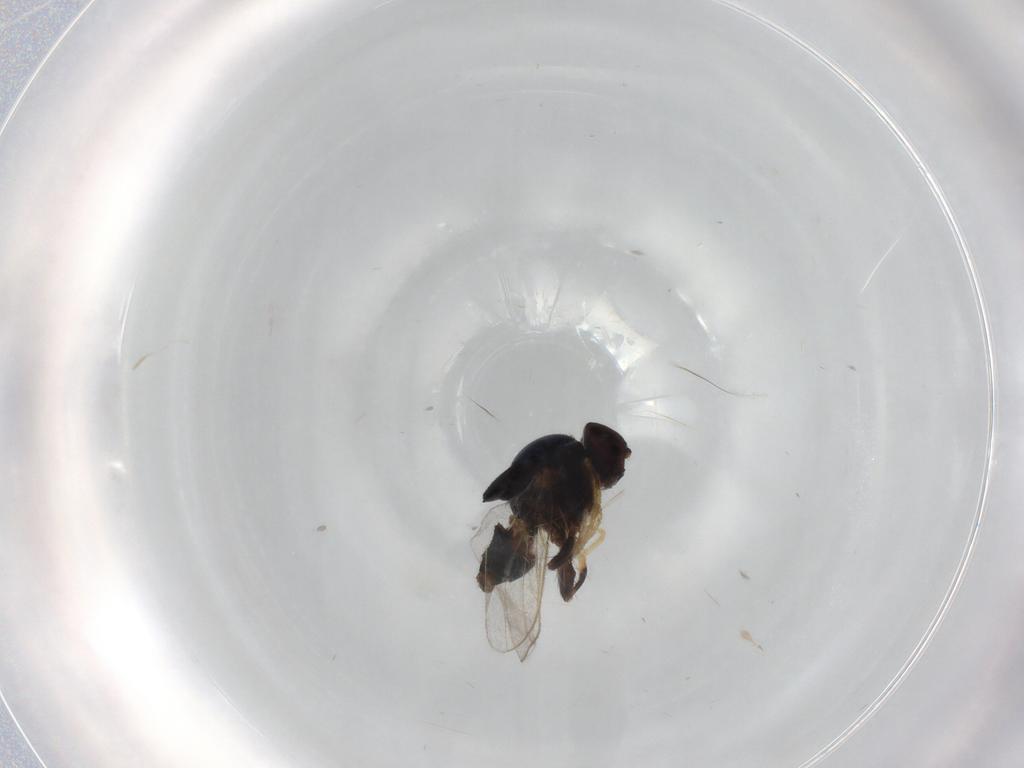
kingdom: Animalia
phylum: Arthropoda
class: Insecta
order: Diptera
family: Chloropidae
